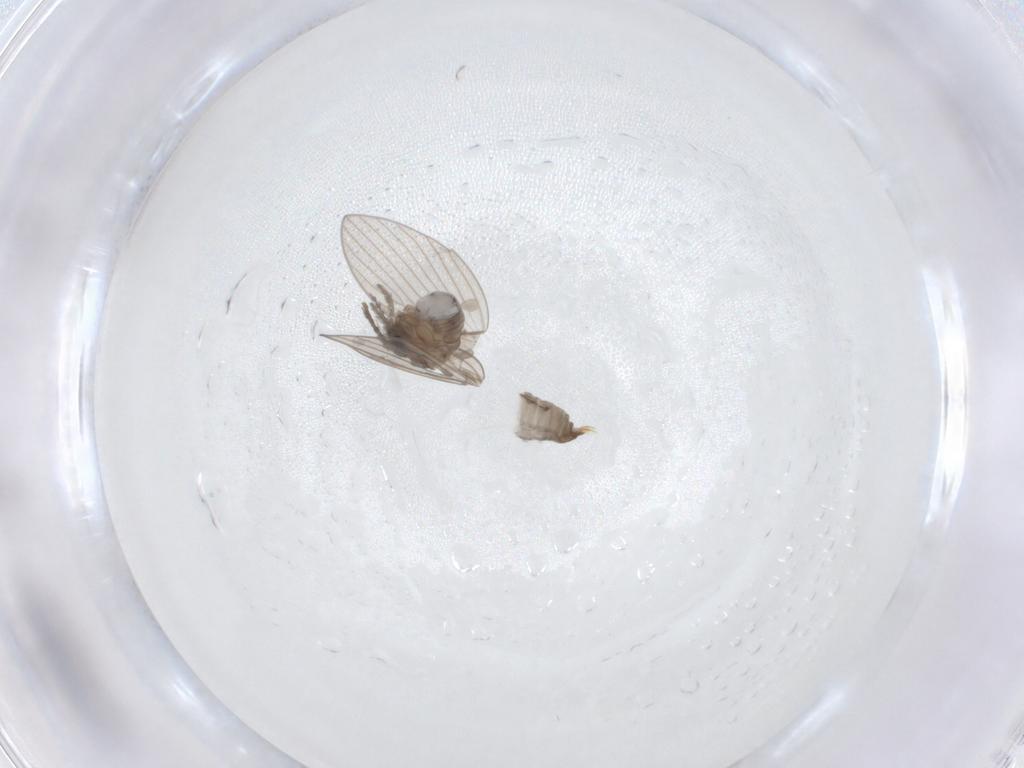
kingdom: Animalia
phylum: Arthropoda
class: Insecta
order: Diptera
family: Psychodidae
